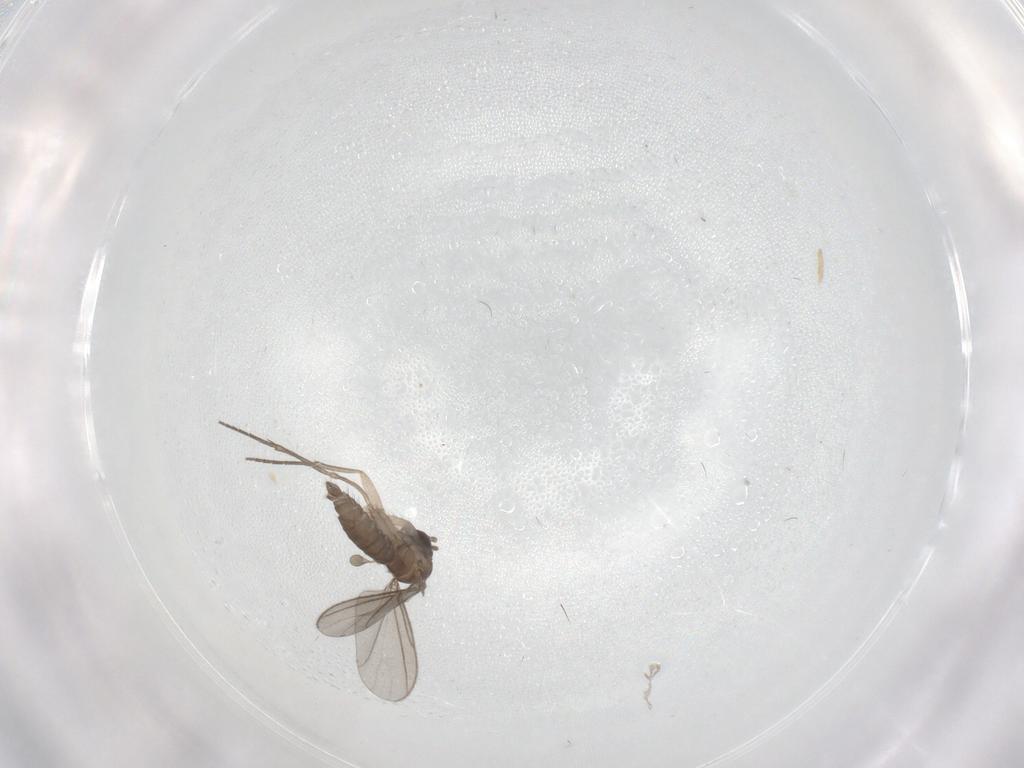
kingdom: Animalia
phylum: Arthropoda
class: Insecta
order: Diptera
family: Sciaridae
